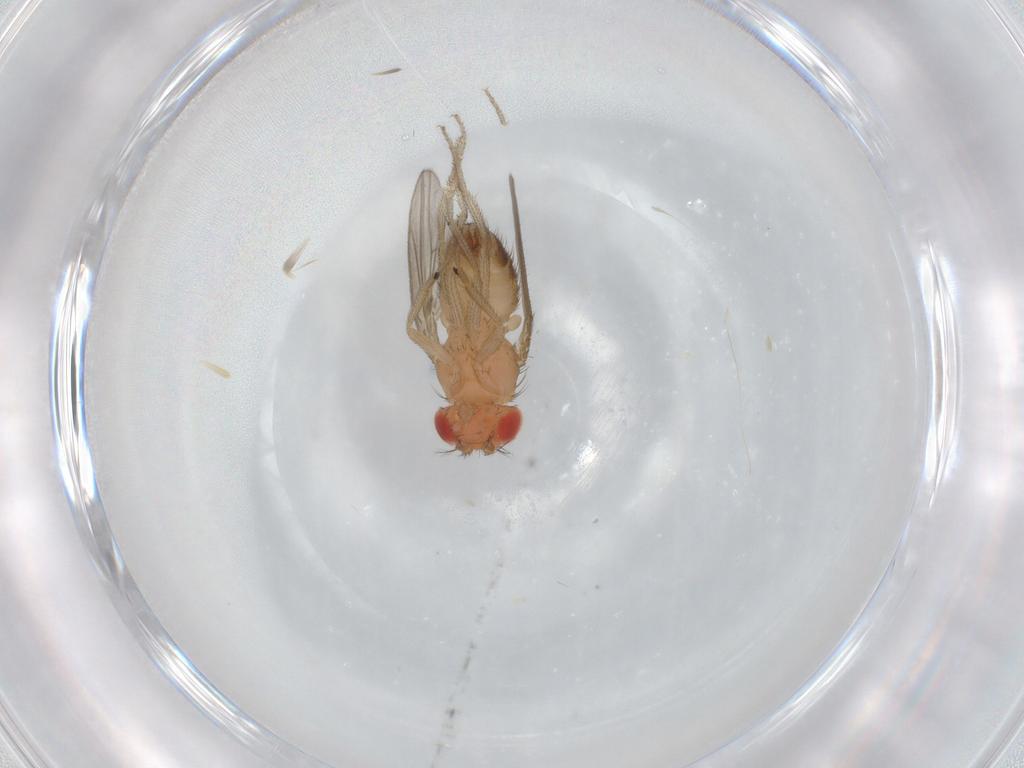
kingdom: Animalia
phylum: Arthropoda
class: Insecta
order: Diptera
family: Drosophilidae
